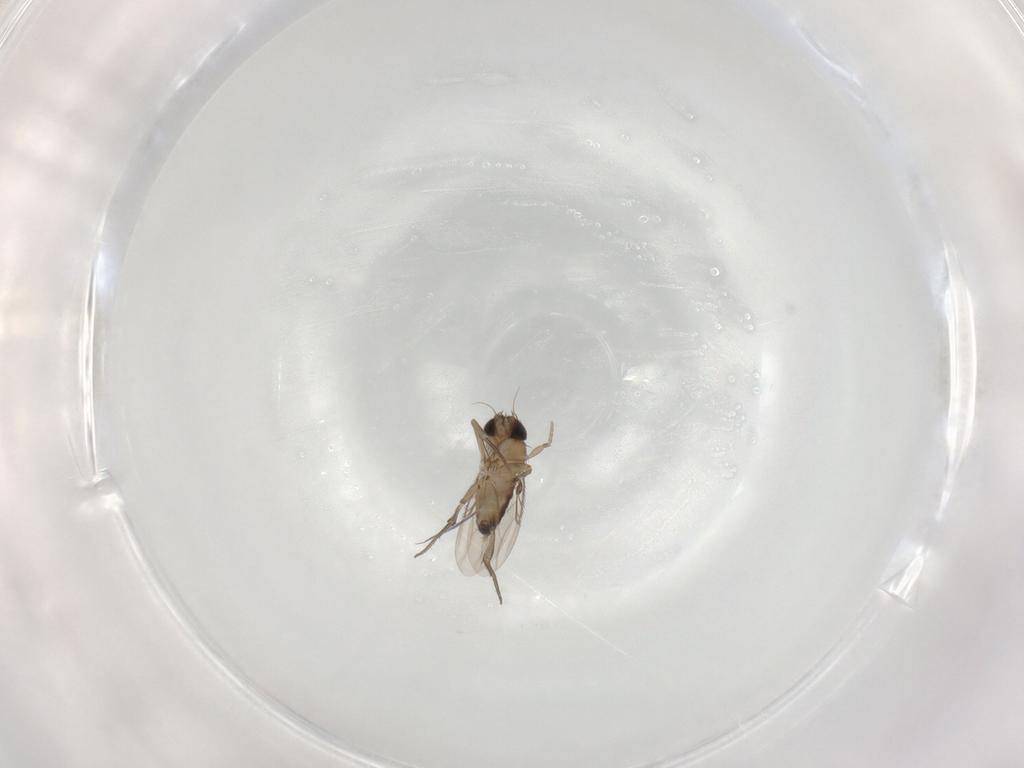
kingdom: Animalia
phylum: Arthropoda
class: Insecta
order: Diptera
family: Phoridae
